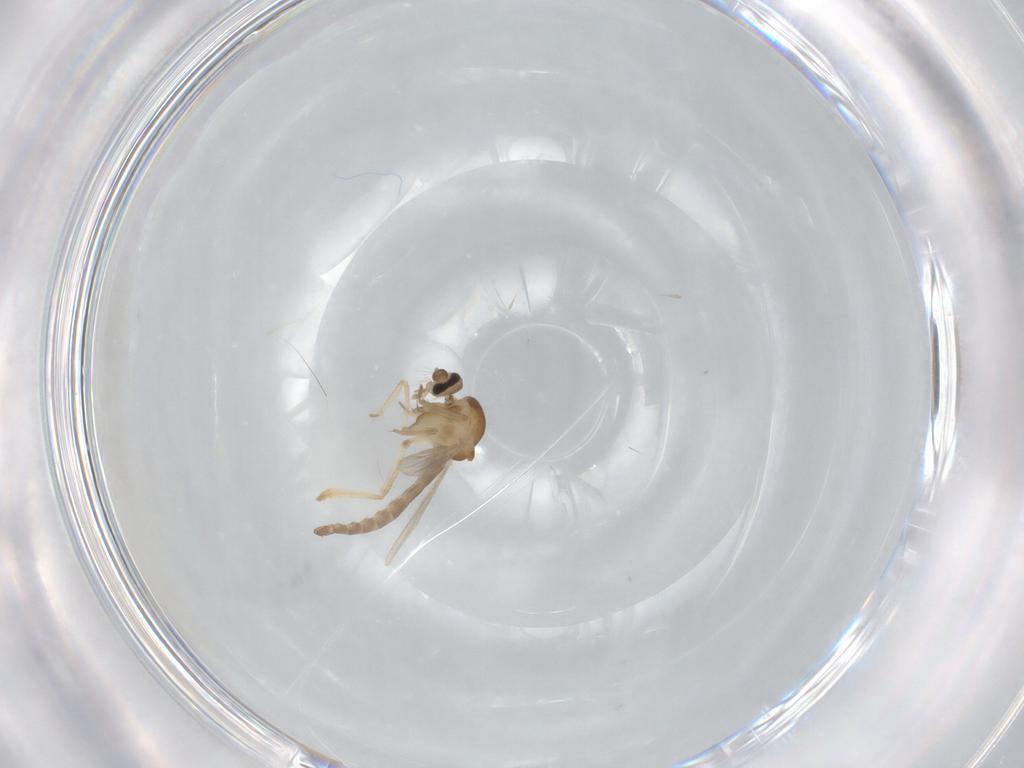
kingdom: Animalia
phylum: Arthropoda
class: Insecta
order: Diptera
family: Ceratopogonidae
